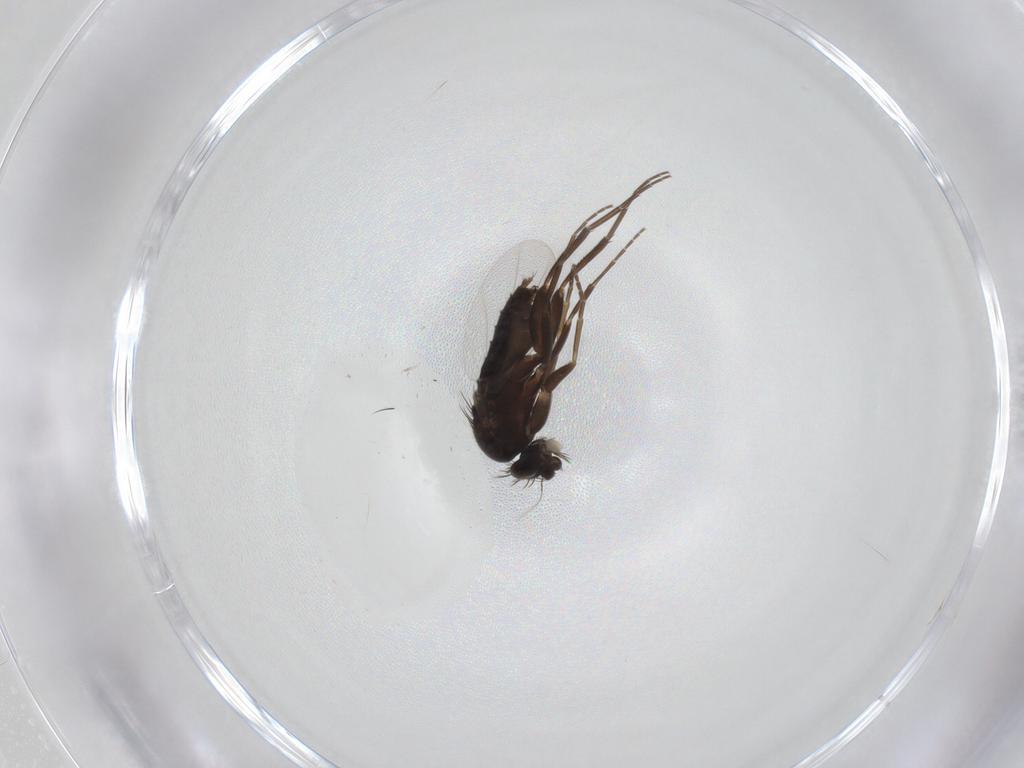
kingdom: Animalia
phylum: Arthropoda
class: Insecta
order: Diptera
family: Phoridae
